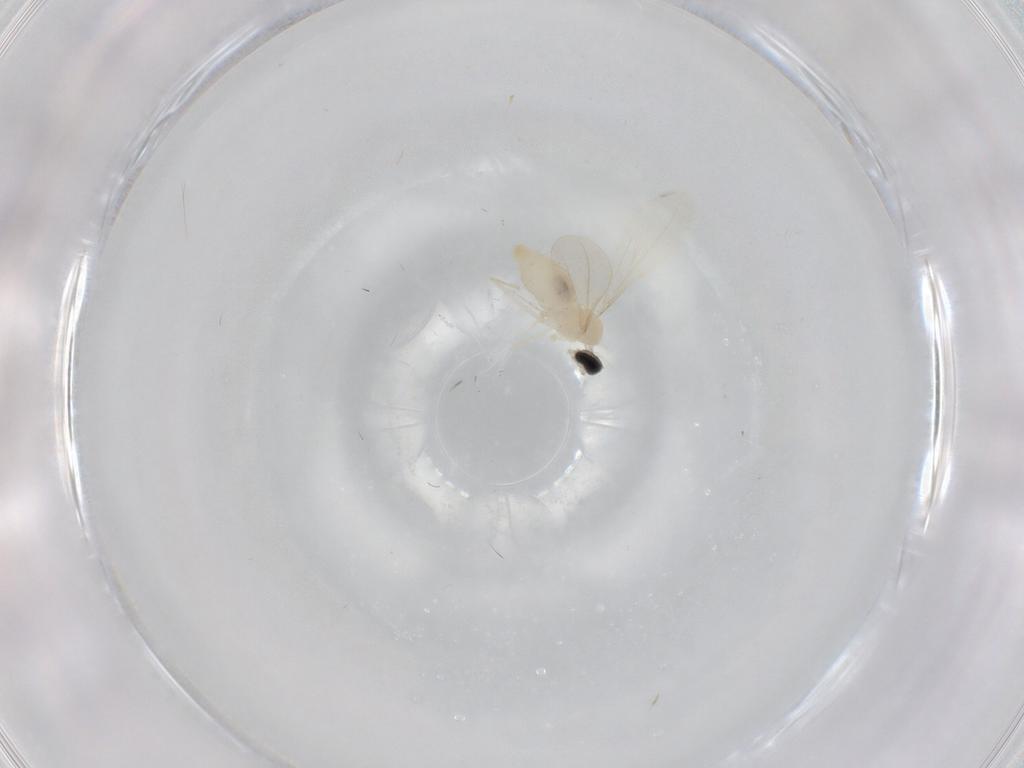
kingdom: Animalia
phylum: Arthropoda
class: Insecta
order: Diptera
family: Cecidomyiidae
